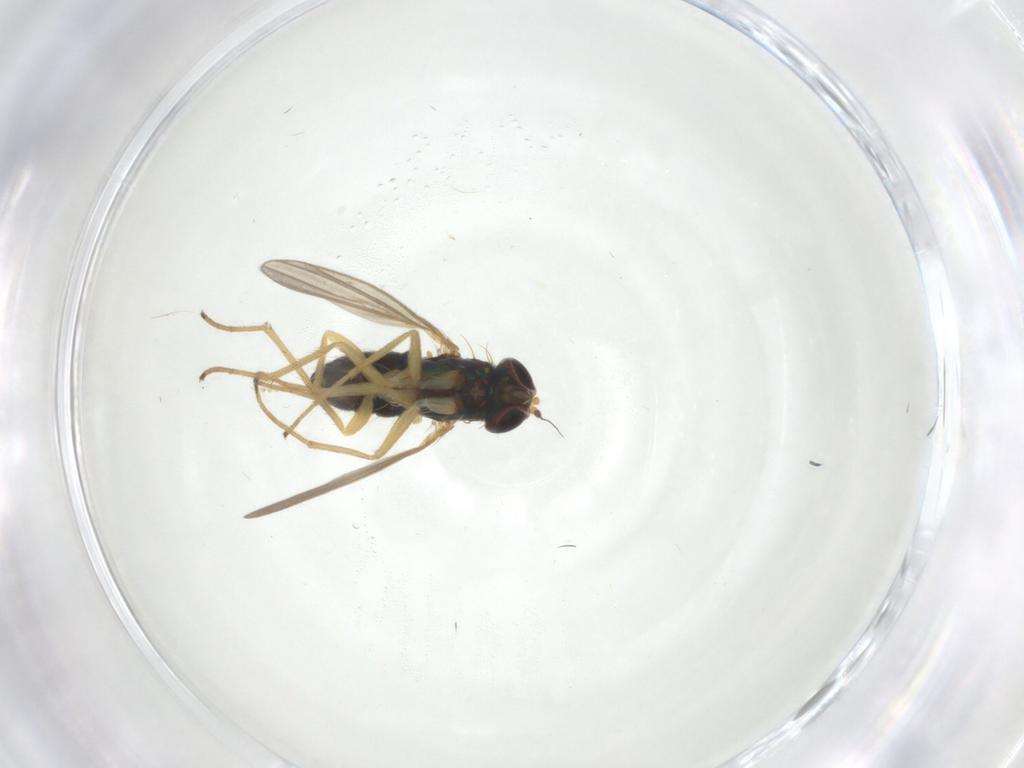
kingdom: Animalia
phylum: Arthropoda
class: Insecta
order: Diptera
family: Dolichopodidae
